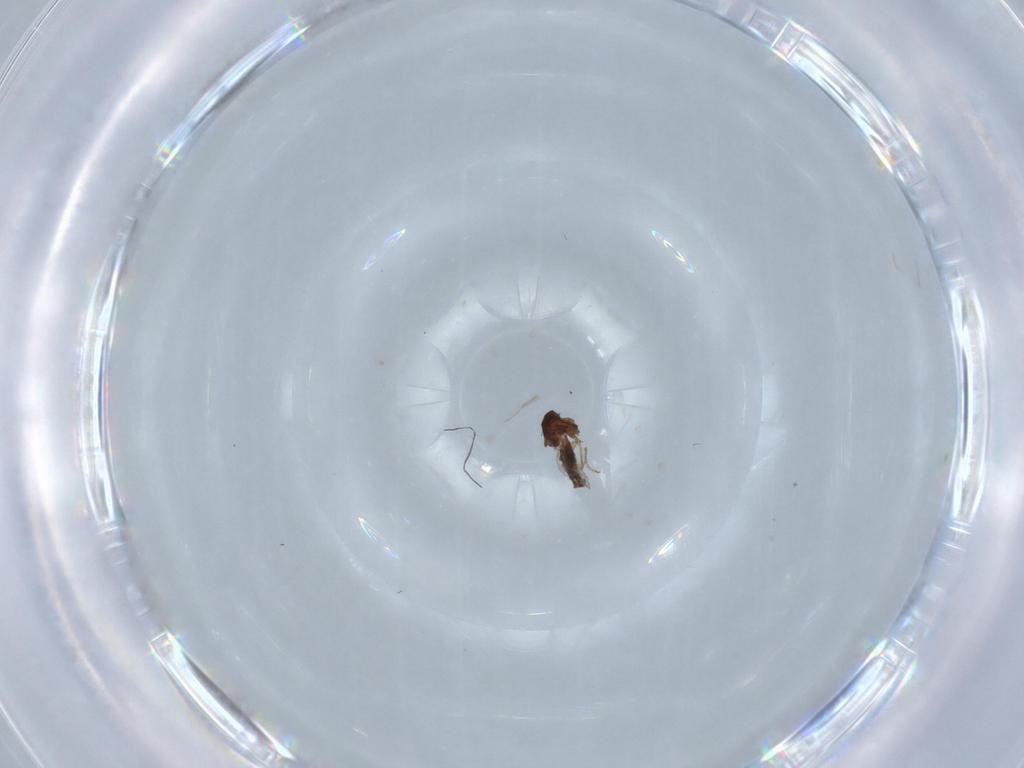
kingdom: Animalia
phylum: Arthropoda
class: Insecta
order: Diptera
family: Ceratopogonidae
